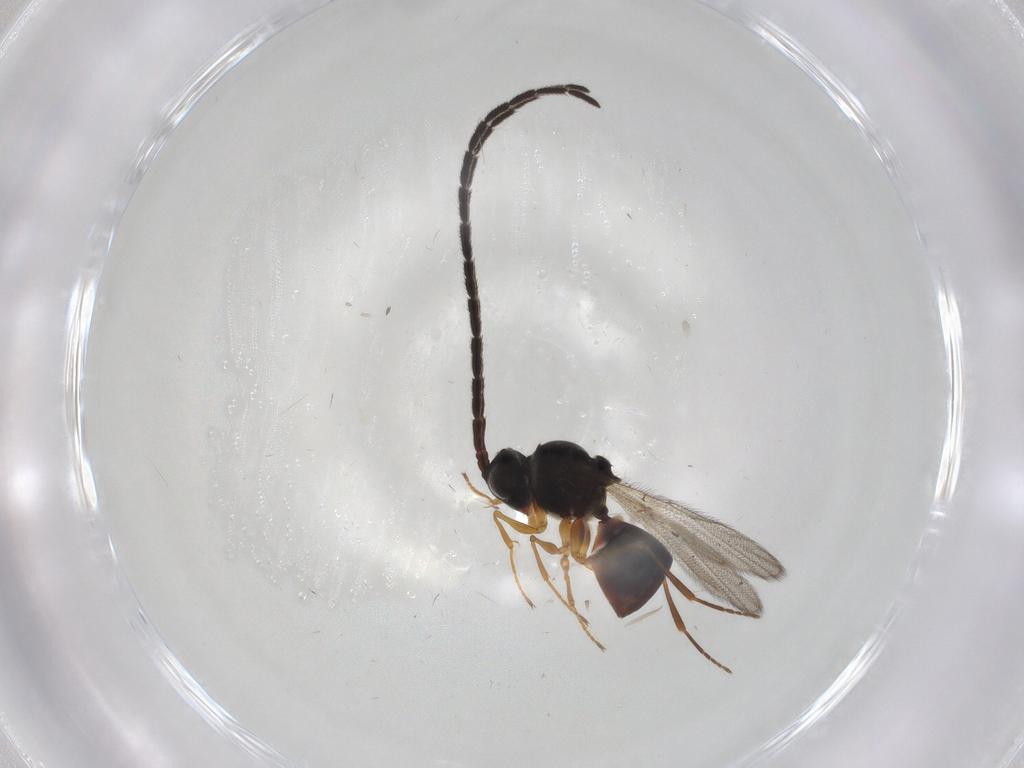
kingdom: Animalia
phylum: Arthropoda
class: Insecta
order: Hymenoptera
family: Figitidae
